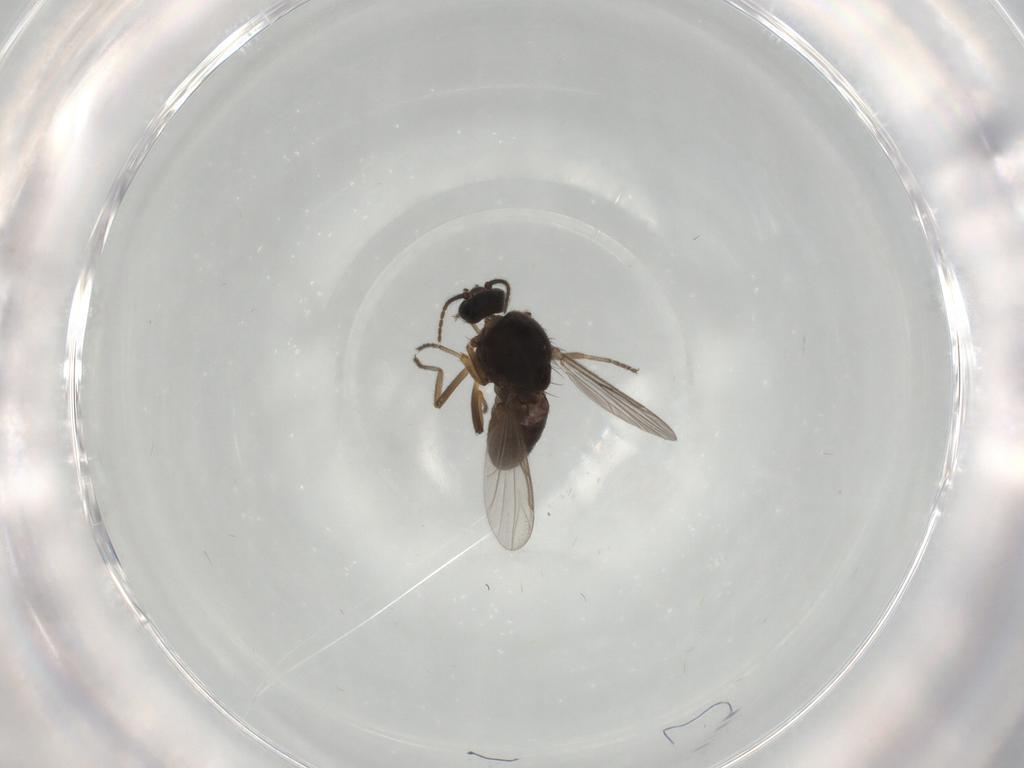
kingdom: Animalia
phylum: Arthropoda
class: Insecta
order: Diptera
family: Ceratopogonidae
